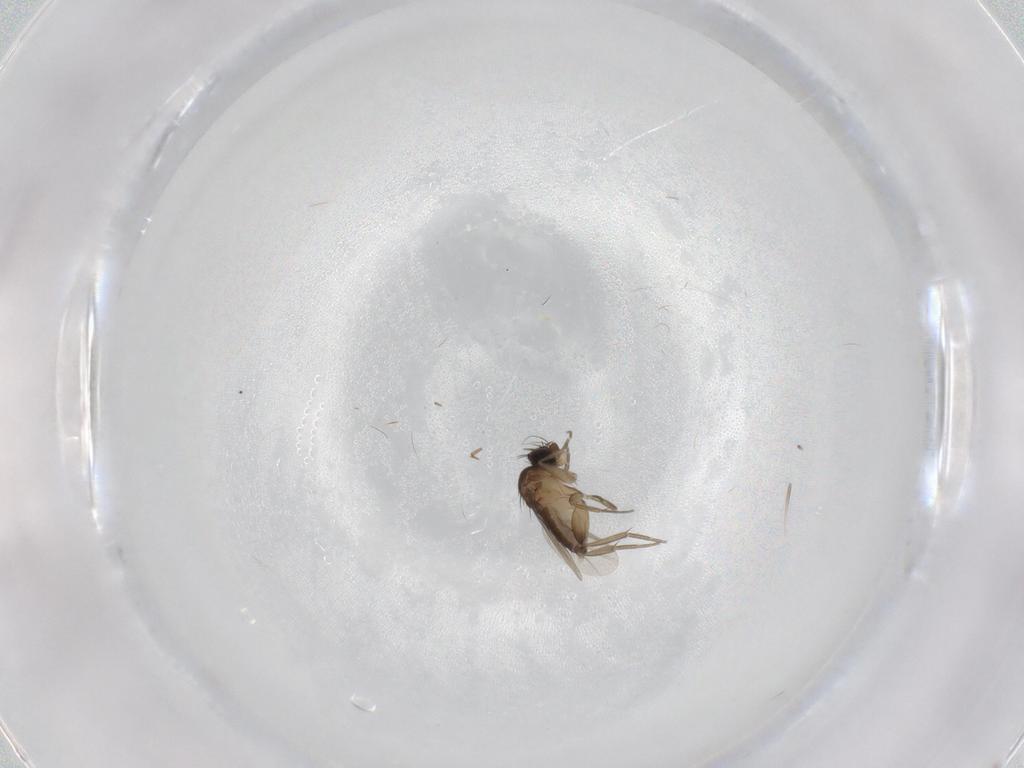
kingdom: Animalia
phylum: Arthropoda
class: Insecta
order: Diptera
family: Phoridae
